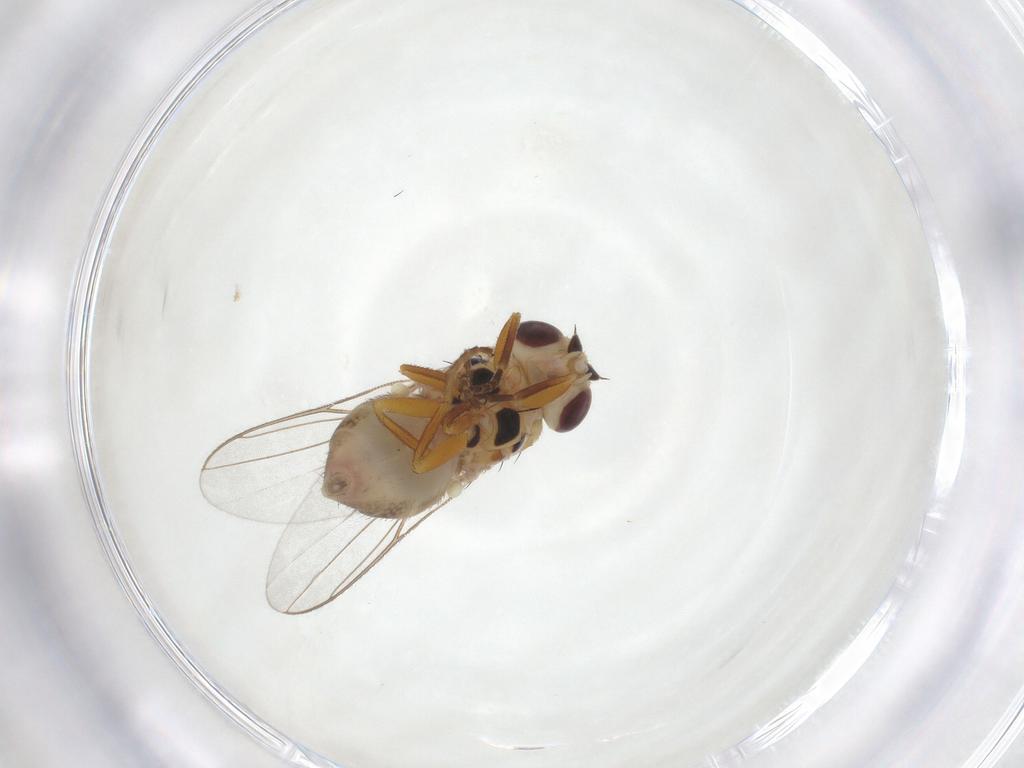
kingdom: Animalia
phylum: Arthropoda
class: Insecta
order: Diptera
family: Chloropidae
